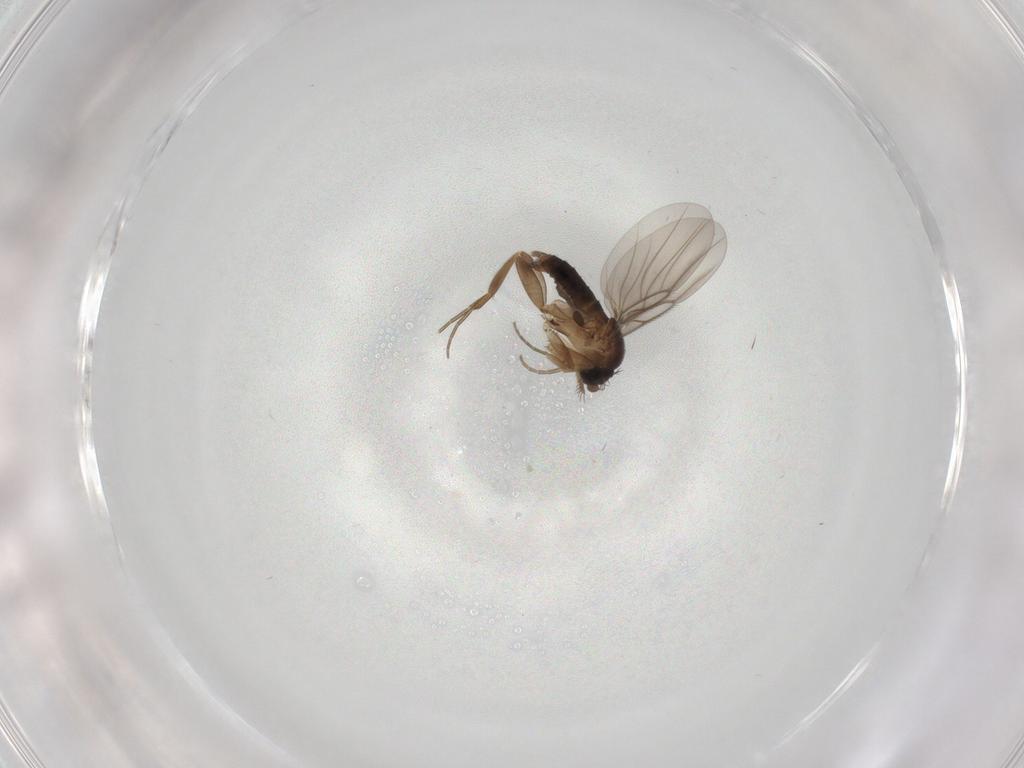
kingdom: Animalia
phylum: Arthropoda
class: Insecta
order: Diptera
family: Cecidomyiidae
